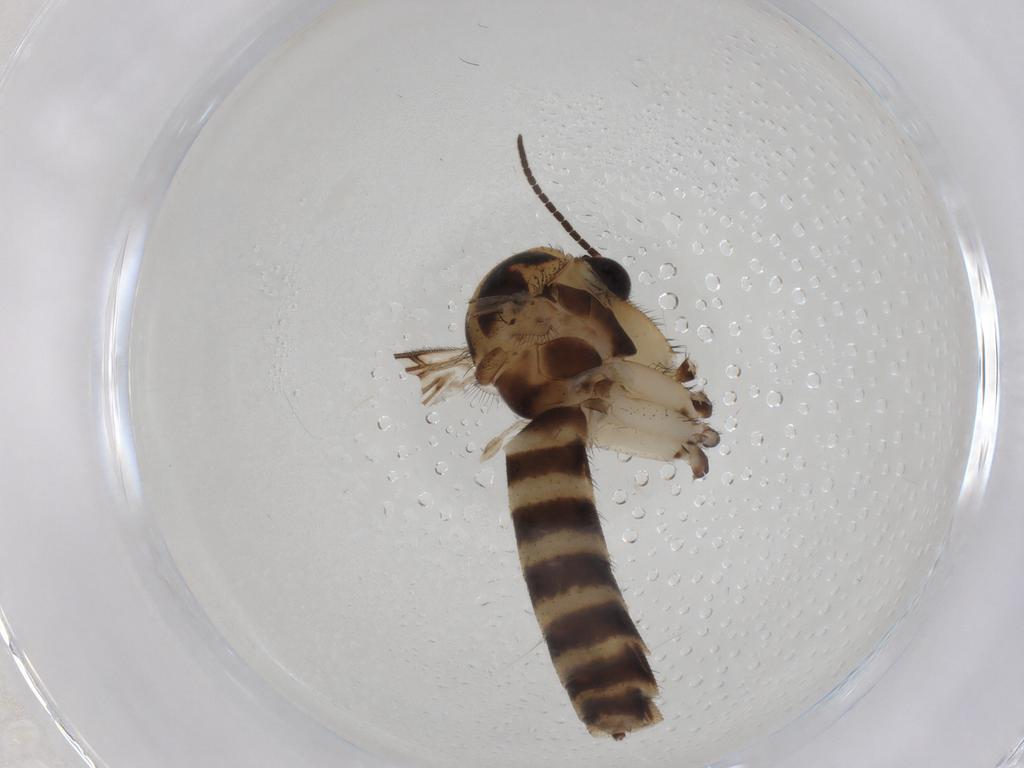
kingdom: Animalia
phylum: Arthropoda
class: Insecta
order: Diptera
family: Mycetophilidae
